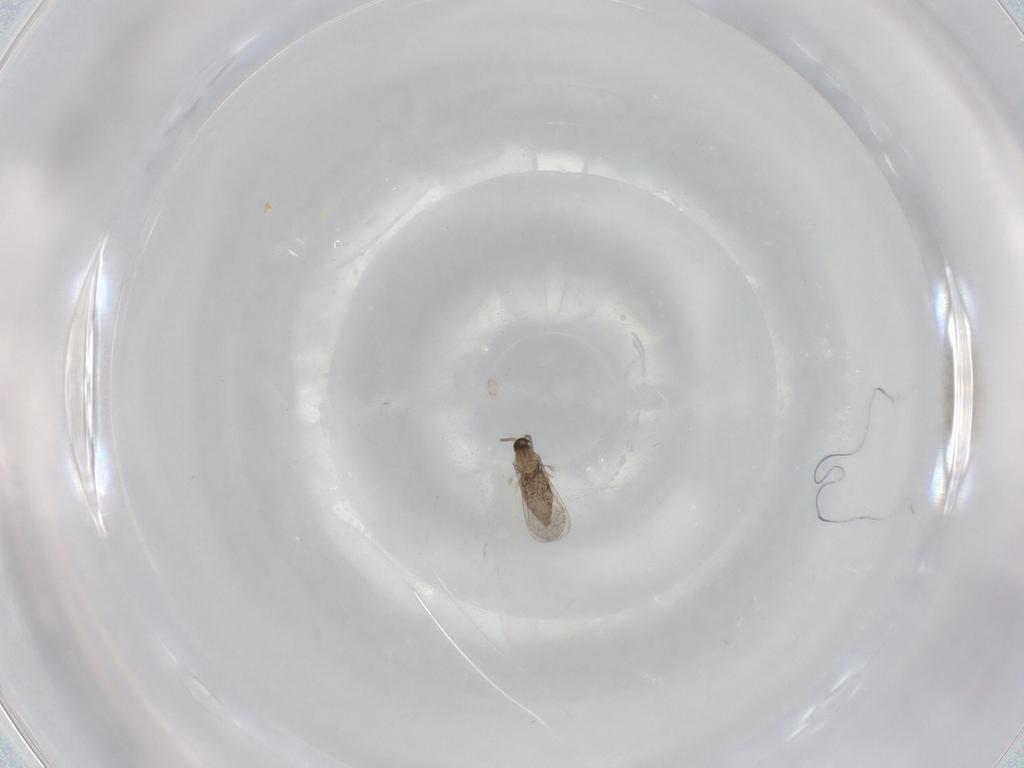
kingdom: Animalia
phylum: Arthropoda
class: Insecta
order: Diptera
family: Cecidomyiidae
